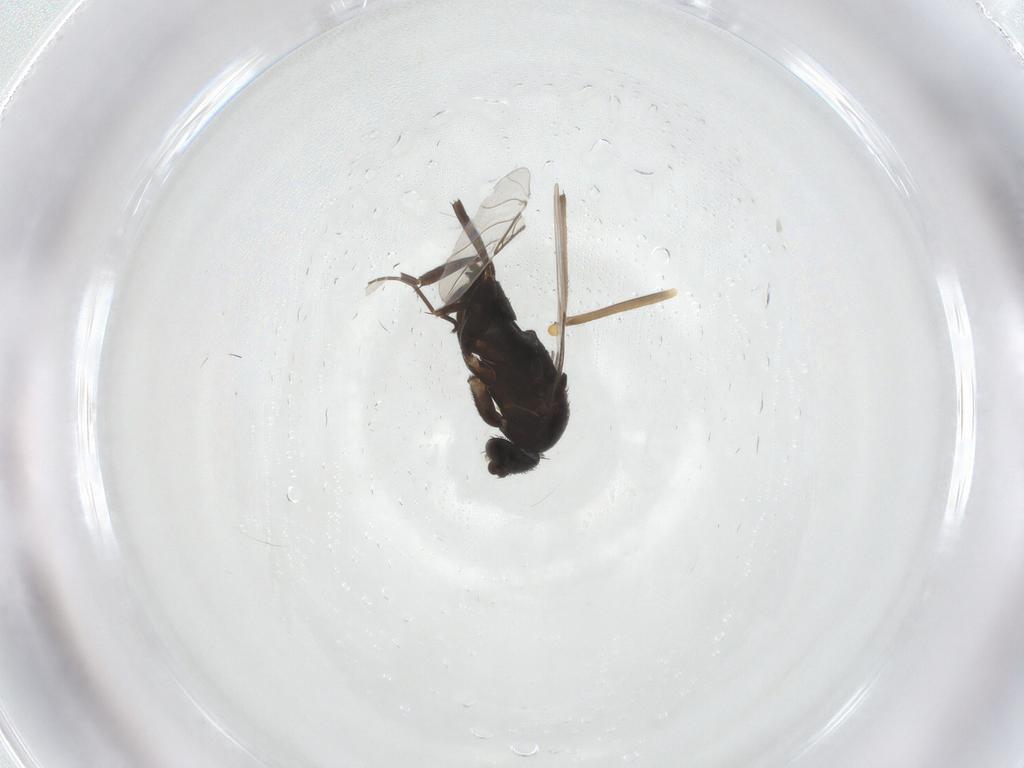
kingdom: Animalia
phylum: Arthropoda
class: Insecta
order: Diptera
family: Phoridae
